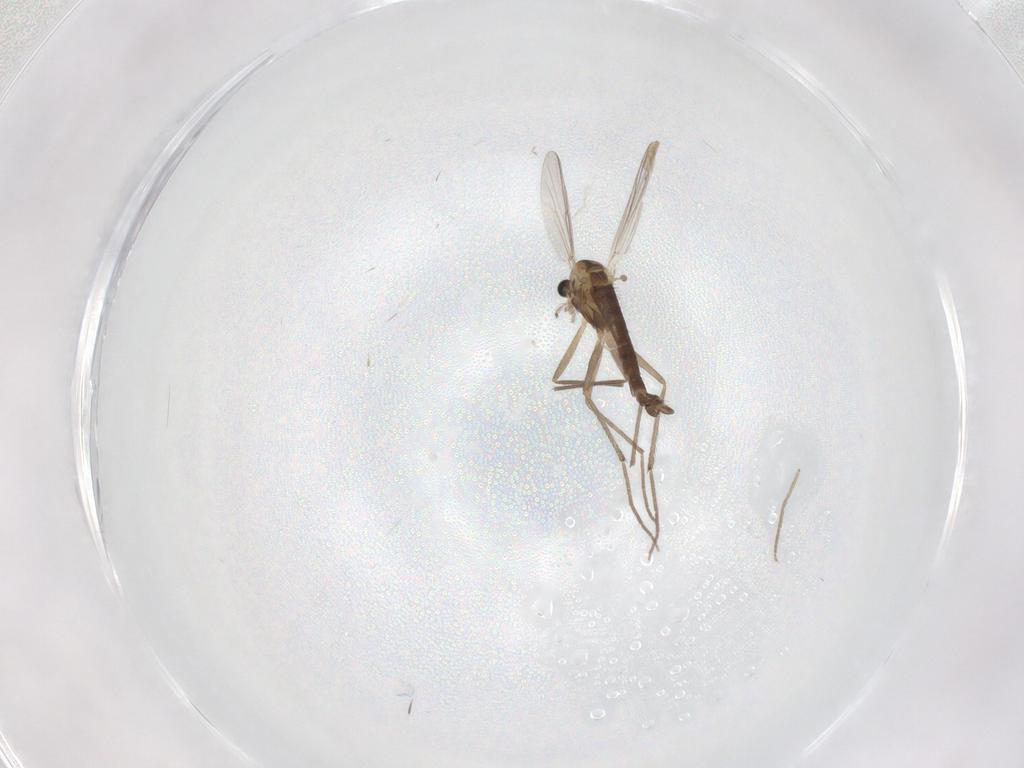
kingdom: Animalia
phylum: Arthropoda
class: Insecta
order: Diptera
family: Chironomidae
